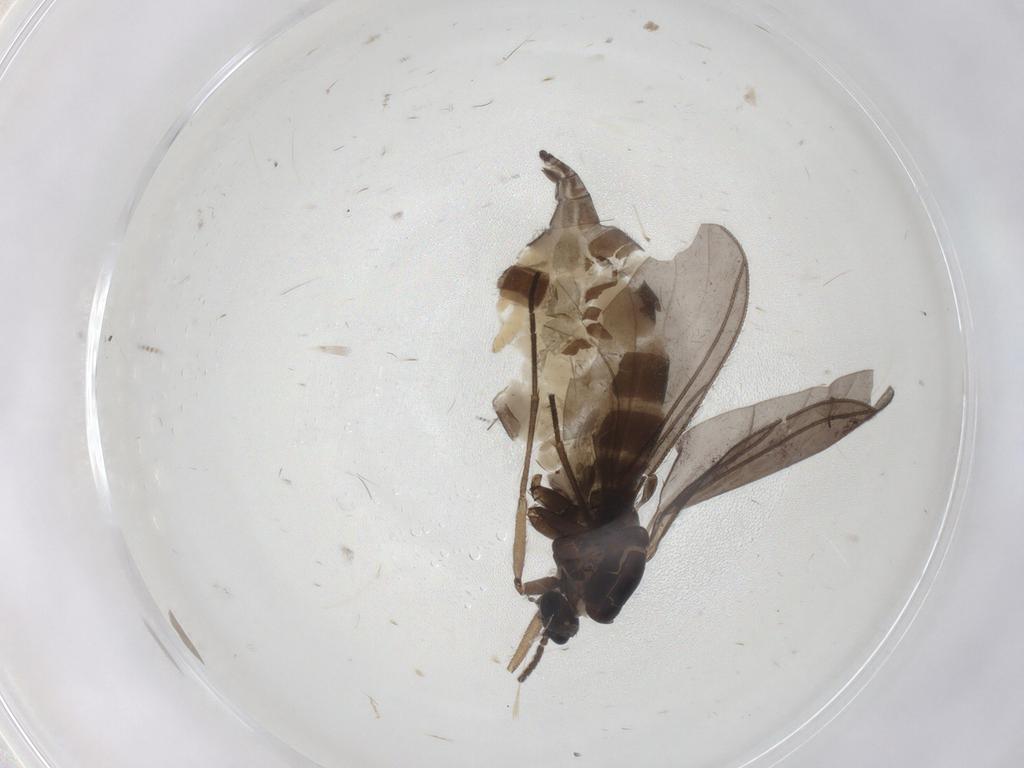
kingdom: Animalia
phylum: Arthropoda
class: Insecta
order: Diptera
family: Sciaridae
